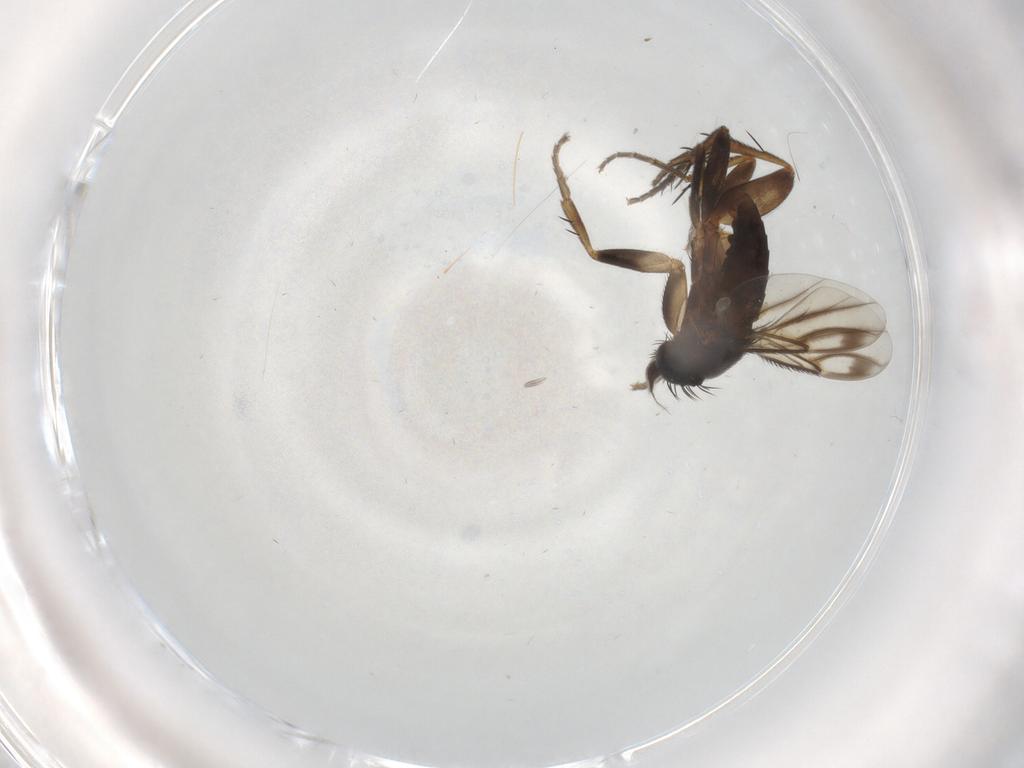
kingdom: Animalia
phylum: Arthropoda
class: Insecta
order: Diptera
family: Phoridae
